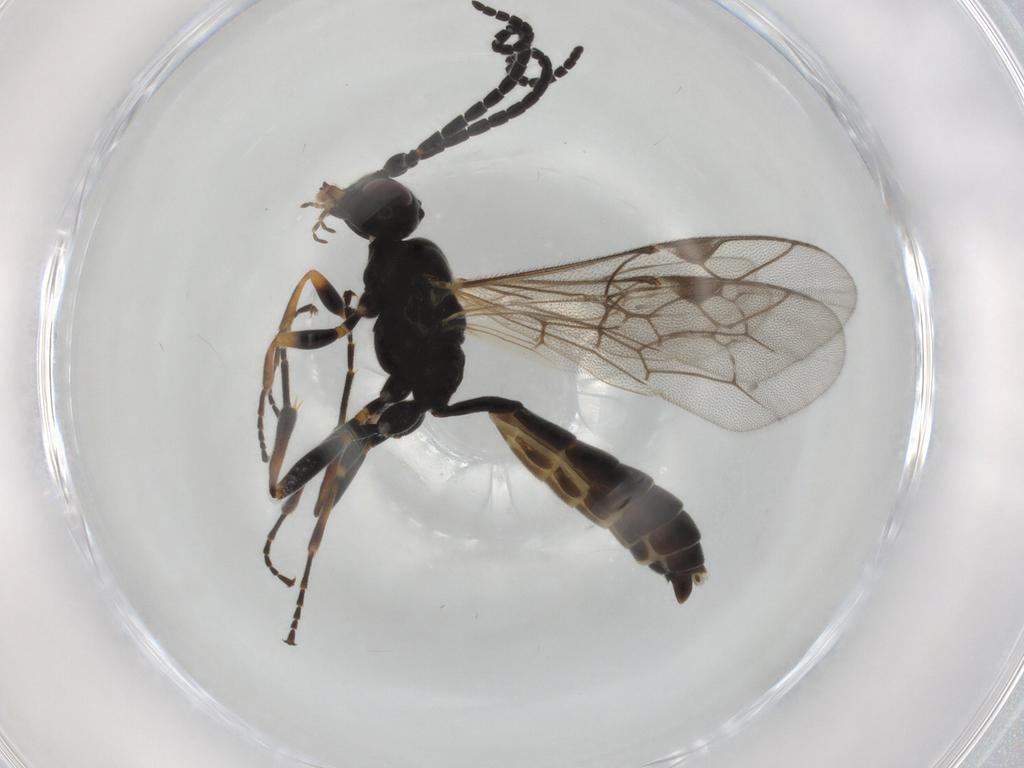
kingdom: Animalia
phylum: Arthropoda
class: Insecta
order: Hymenoptera
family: Ichneumonidae
